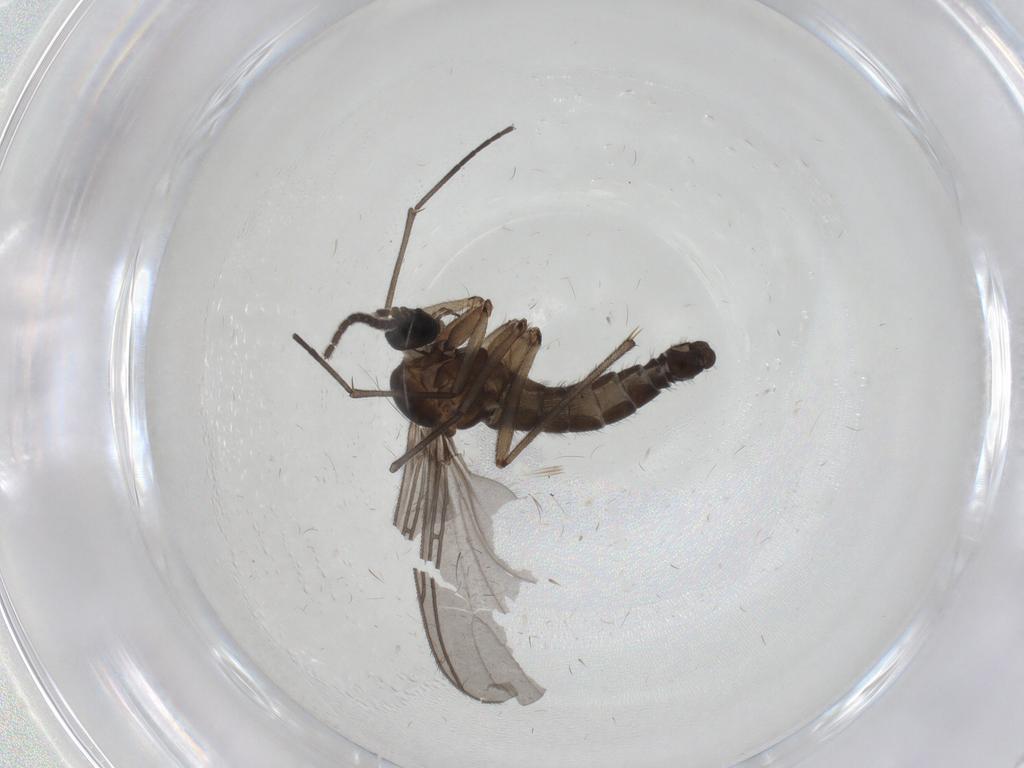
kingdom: Animalia
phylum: Arthropoda
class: Insecta
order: Diptera
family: Sciaridae
